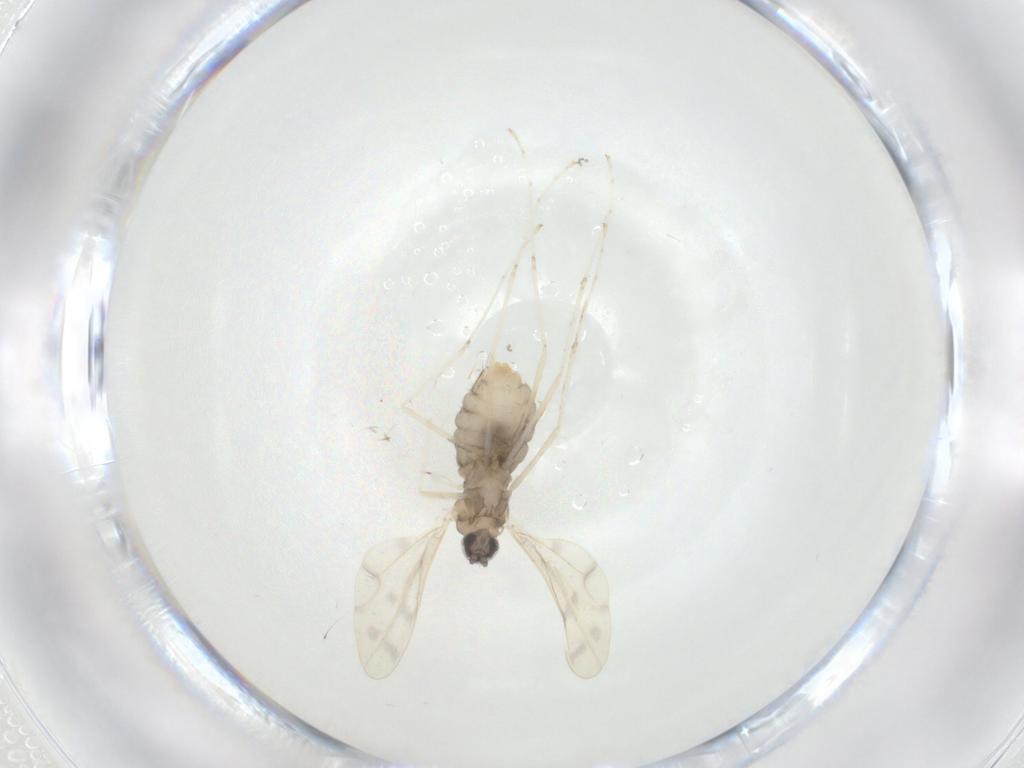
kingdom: Animalia
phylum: Arthropoda
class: Insecta
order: Diptera
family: Cecidomyiidae
